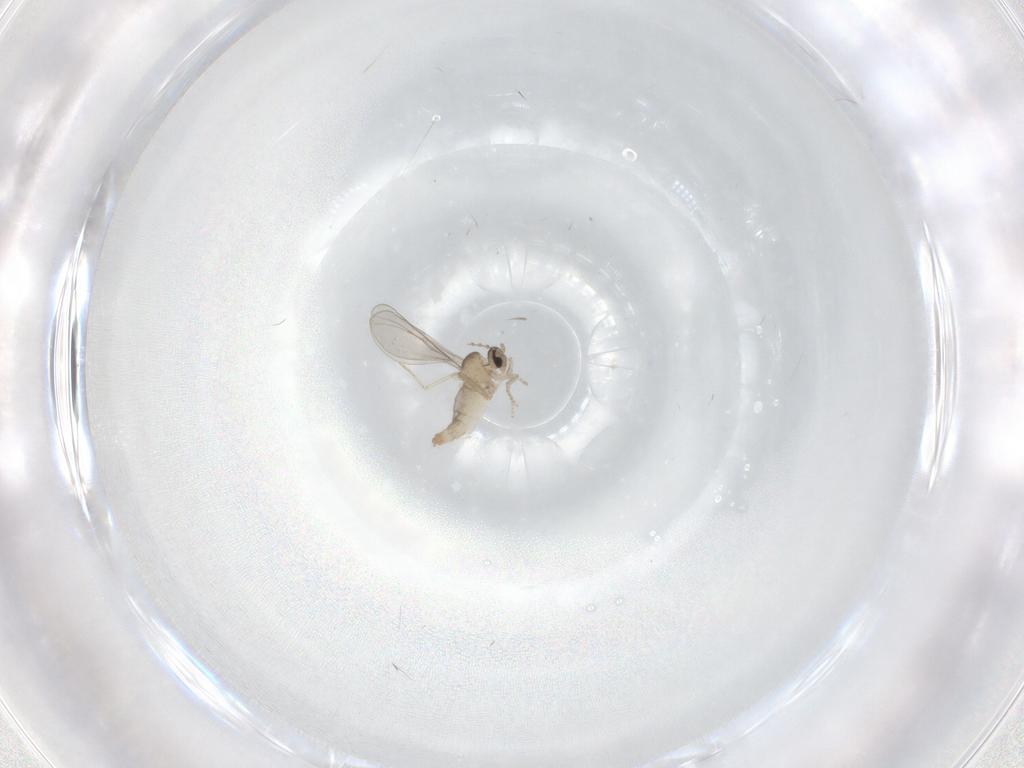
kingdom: Animalia
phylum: Arthropoda
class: Insecta
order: Diptera
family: Cecidomyiidae
